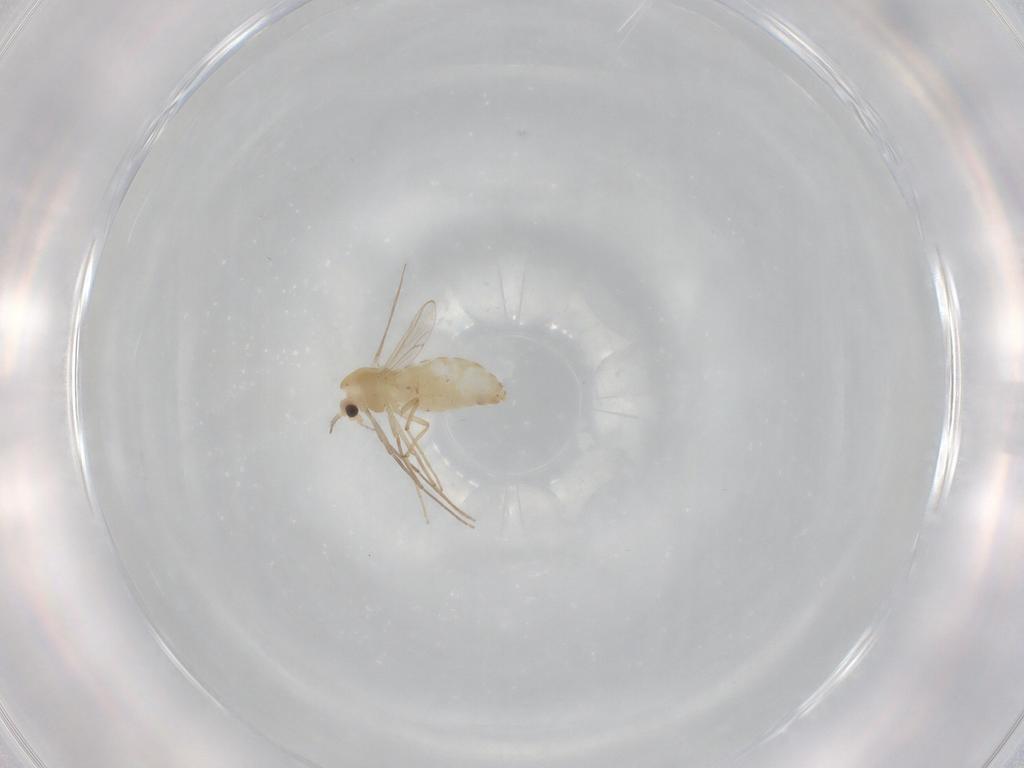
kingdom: Animalia
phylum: Arthropoda
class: Insecta
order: Diptera
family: Chironomidae
